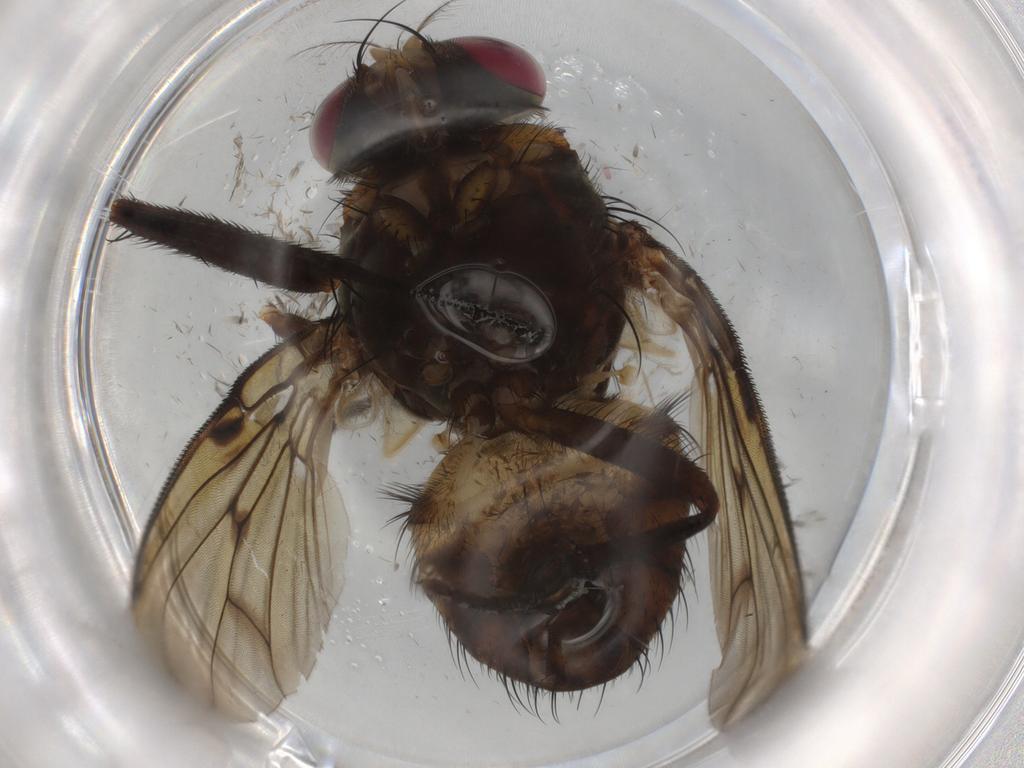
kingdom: Animalia
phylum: Arthropoda
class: Insecta
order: Diptera
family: Muscidae
